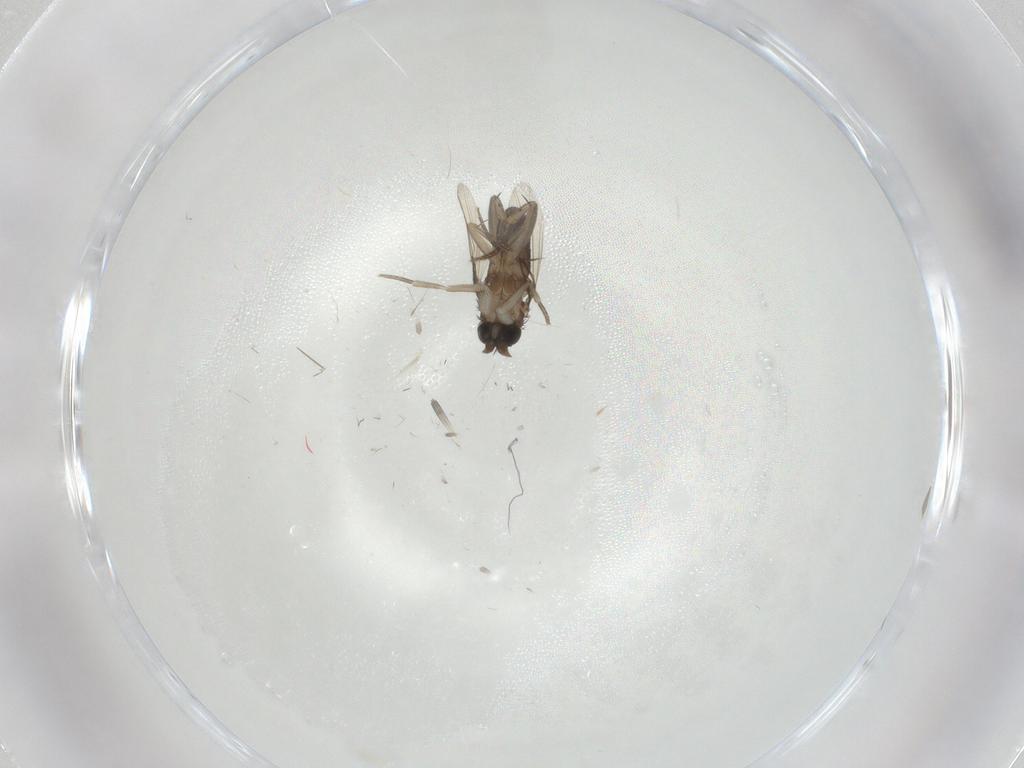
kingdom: Animalia
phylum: Arthropoda
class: Insecta
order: Diptera
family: Phoridae
